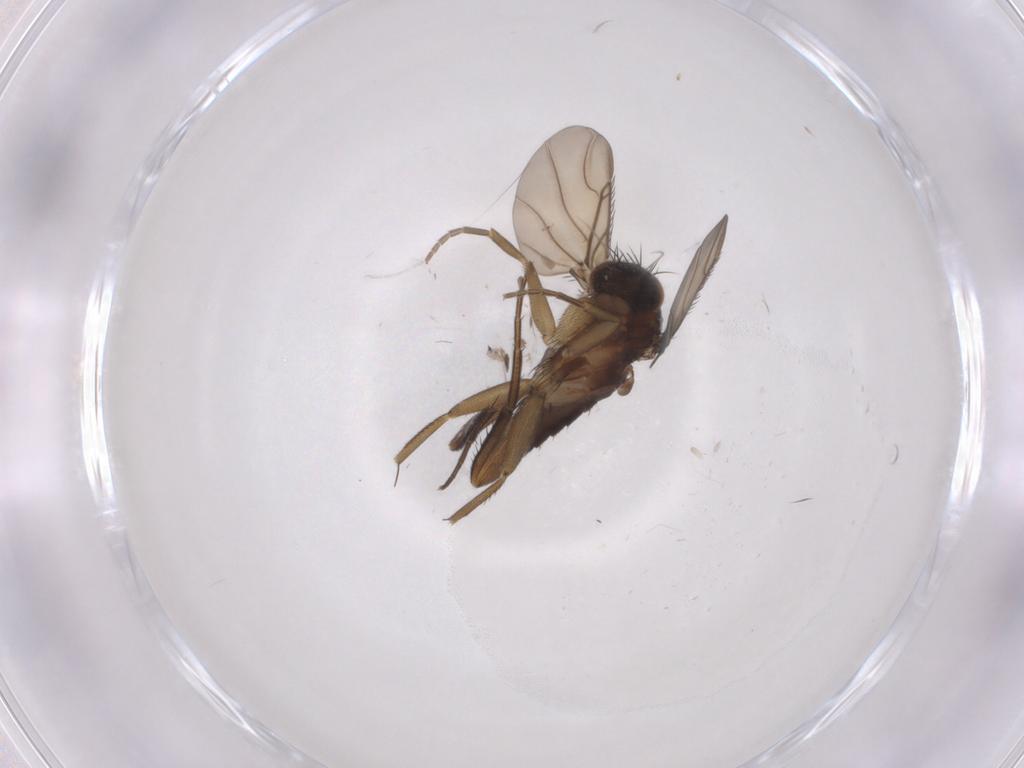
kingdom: Animalia
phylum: Arthropoda
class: Insecta
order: Diptera
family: Phoridae
